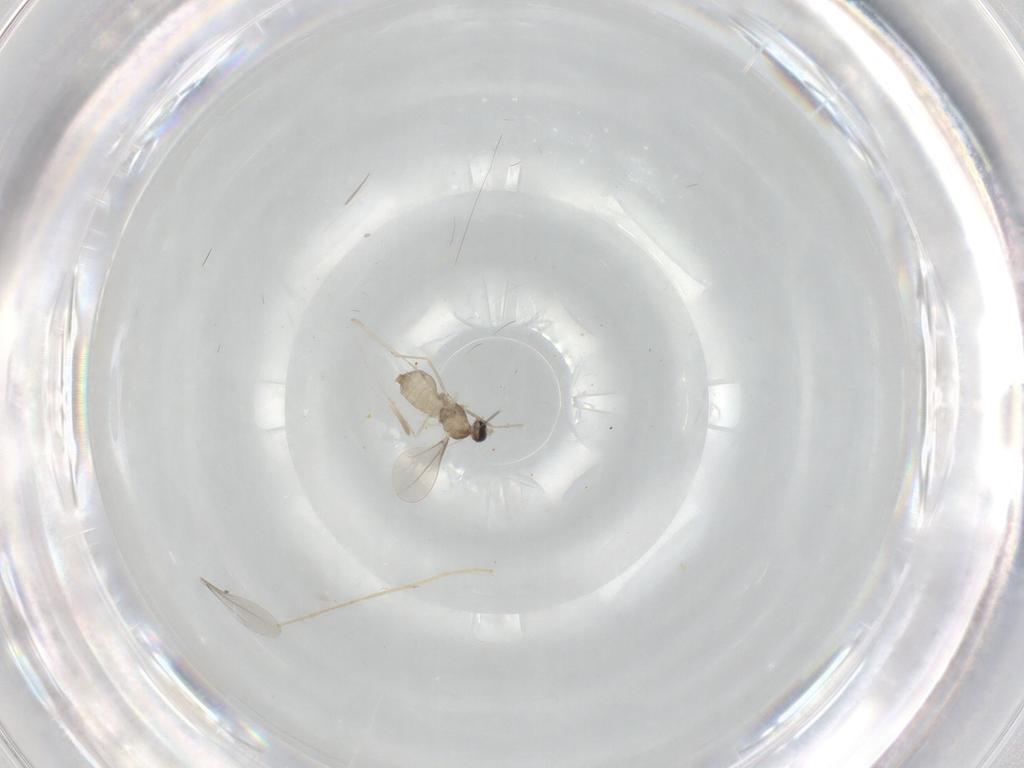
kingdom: Animalia
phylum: Arthropoda
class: Insecta
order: Diptera
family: Cecidomyiidae
